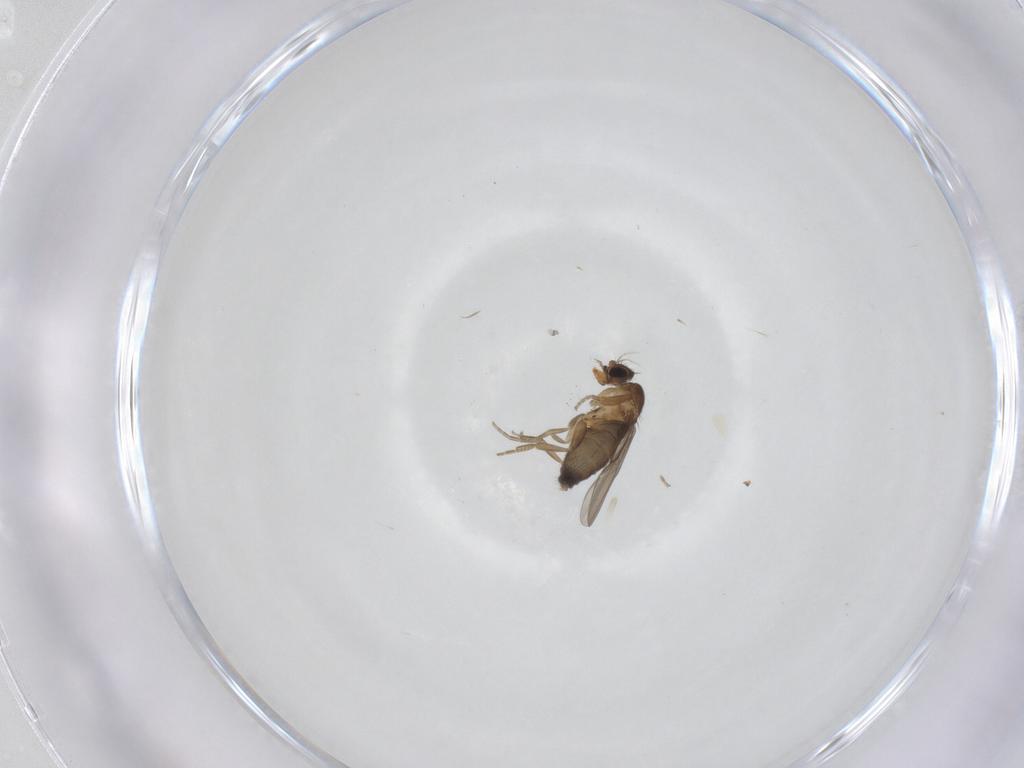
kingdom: Animalia
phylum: Arthropoda
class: Insecta
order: Diptera
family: Phoridae
